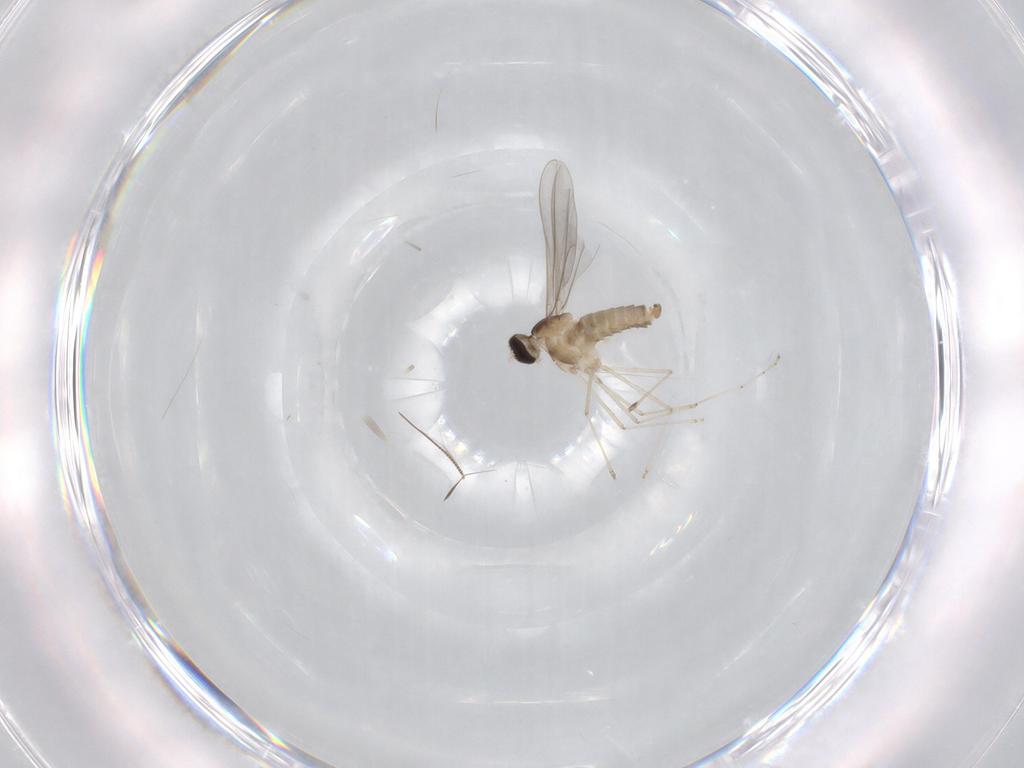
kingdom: Animalia
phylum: Arthropoda
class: Insecta
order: Diptera
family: Cecidomyiidae
